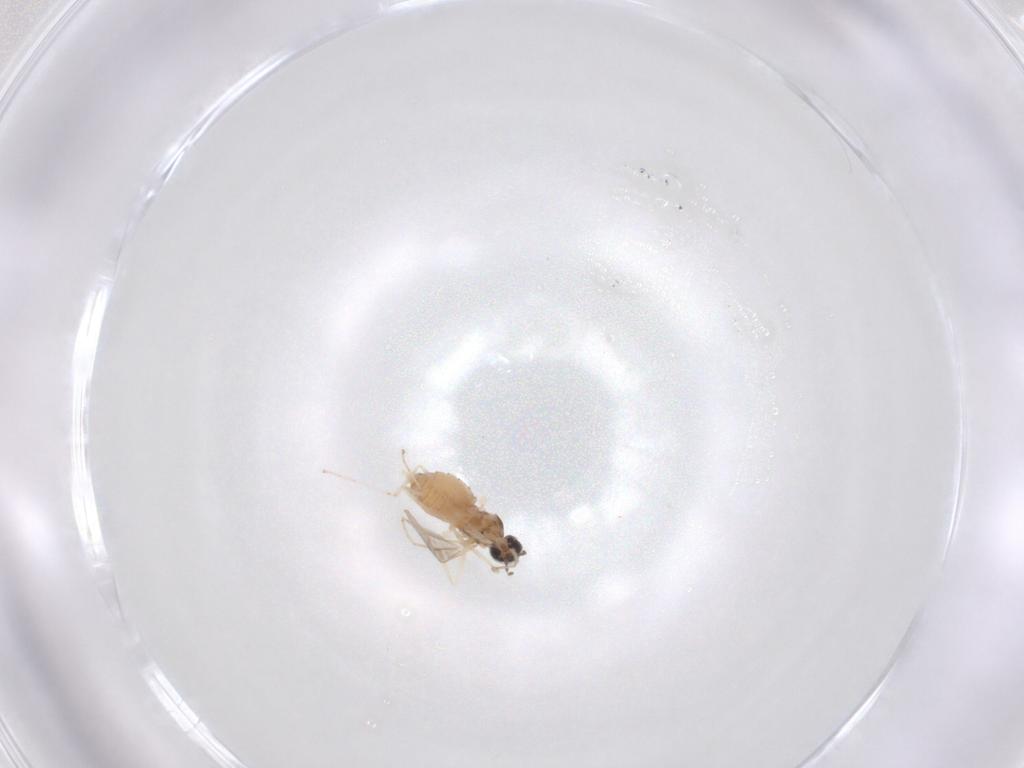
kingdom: Animalia
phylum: Arthropoda
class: Insecta
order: Diptera
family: Cecidomyiidae
